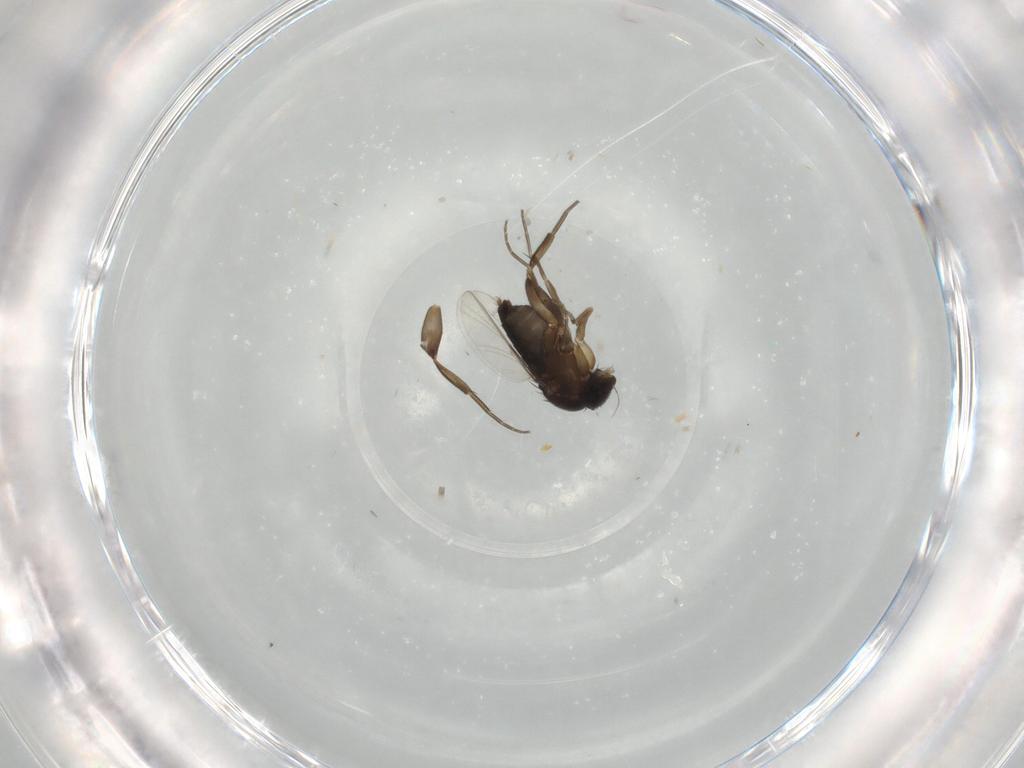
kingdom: Animalia
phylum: Arthropoda
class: Insecta
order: Diptera
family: Phoridae
